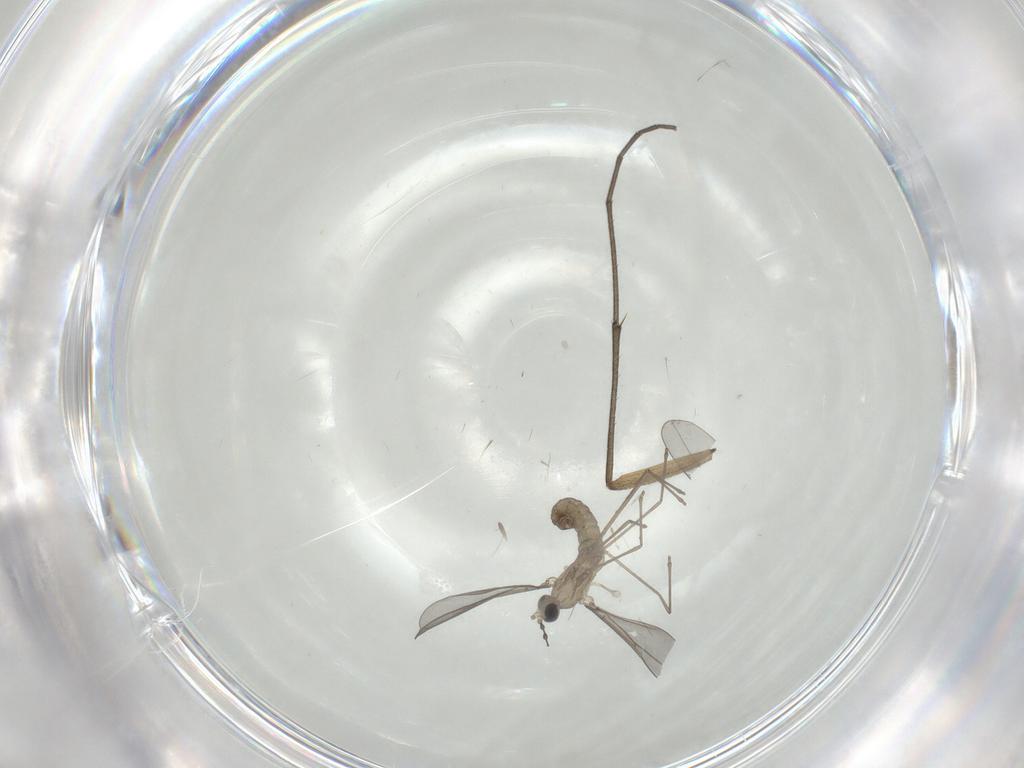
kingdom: Animalia
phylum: Arthropoda
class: Insecta
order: Diptera
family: Sciaridae
